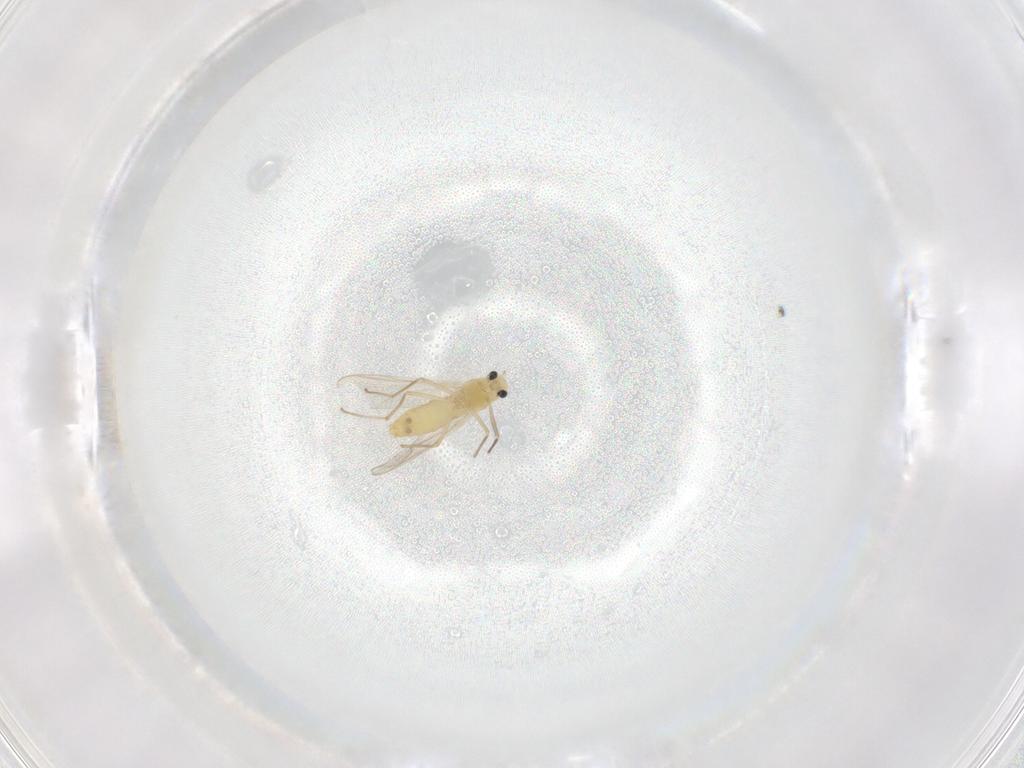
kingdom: Animalia
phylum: Arthropoda
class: Insecta
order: Diptera
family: Chironomidae
